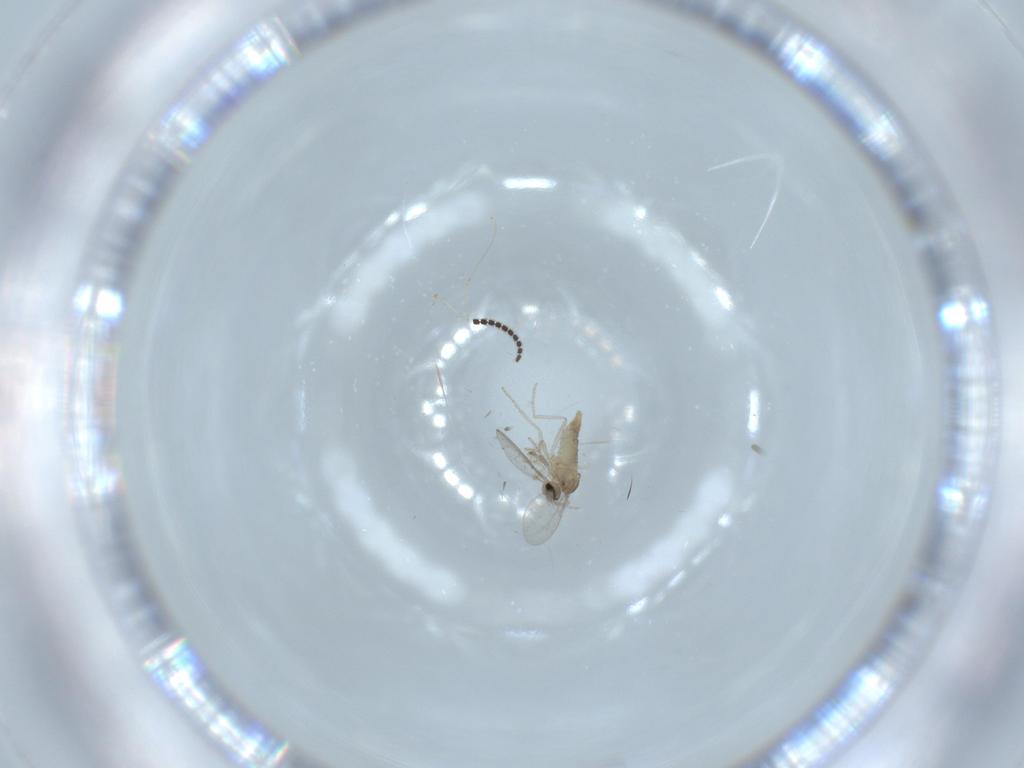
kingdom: Animalia
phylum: Arthropoda
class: Insecta
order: Diptera
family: Cecidomyiidae
